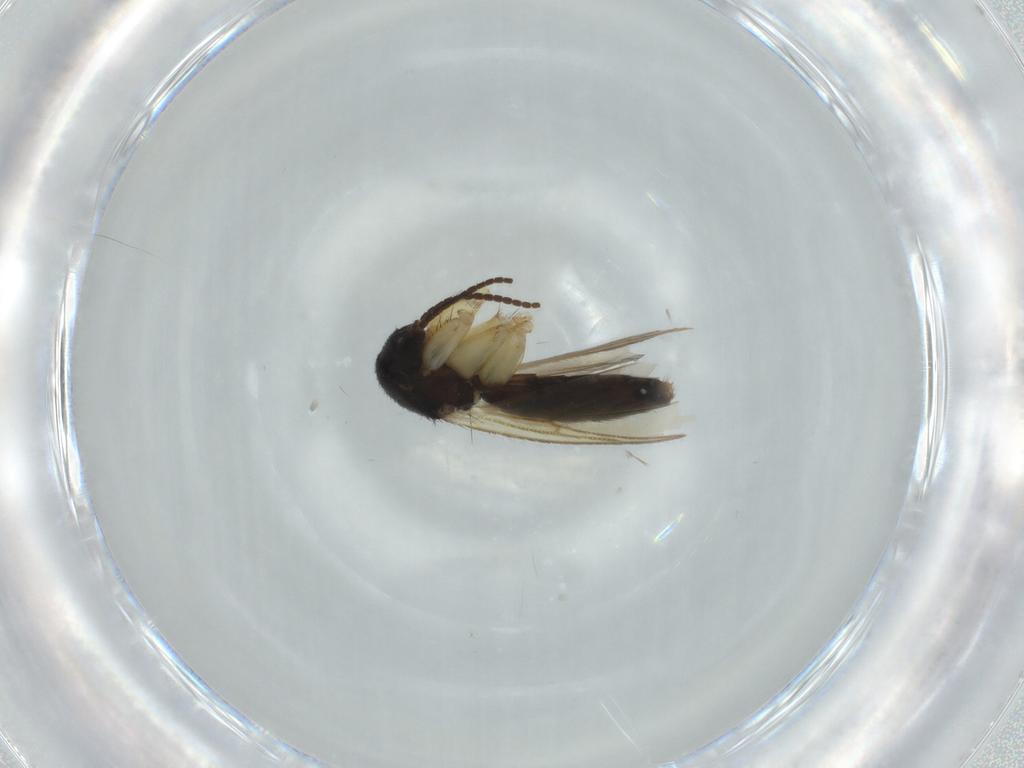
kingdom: Animalia
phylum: Arthropoda
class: Insecta
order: Diptera
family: Mycetophilidae
